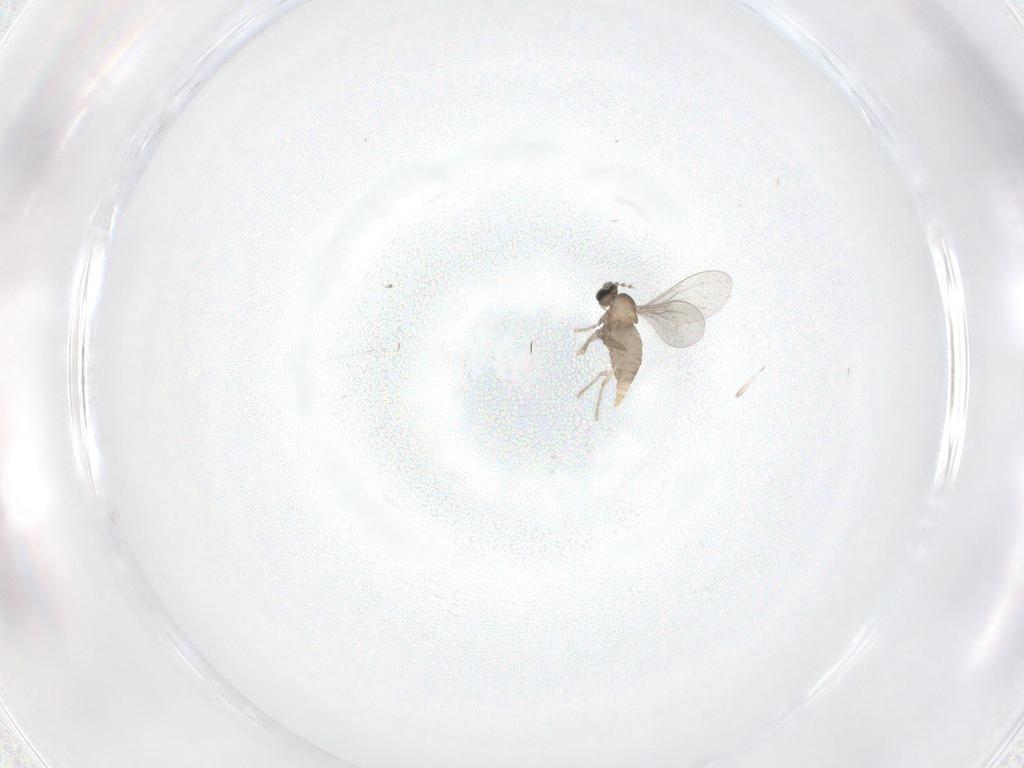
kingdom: Animalia
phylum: Arthropoda
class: Insecta
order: Diptera
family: Cecidomyiidae
